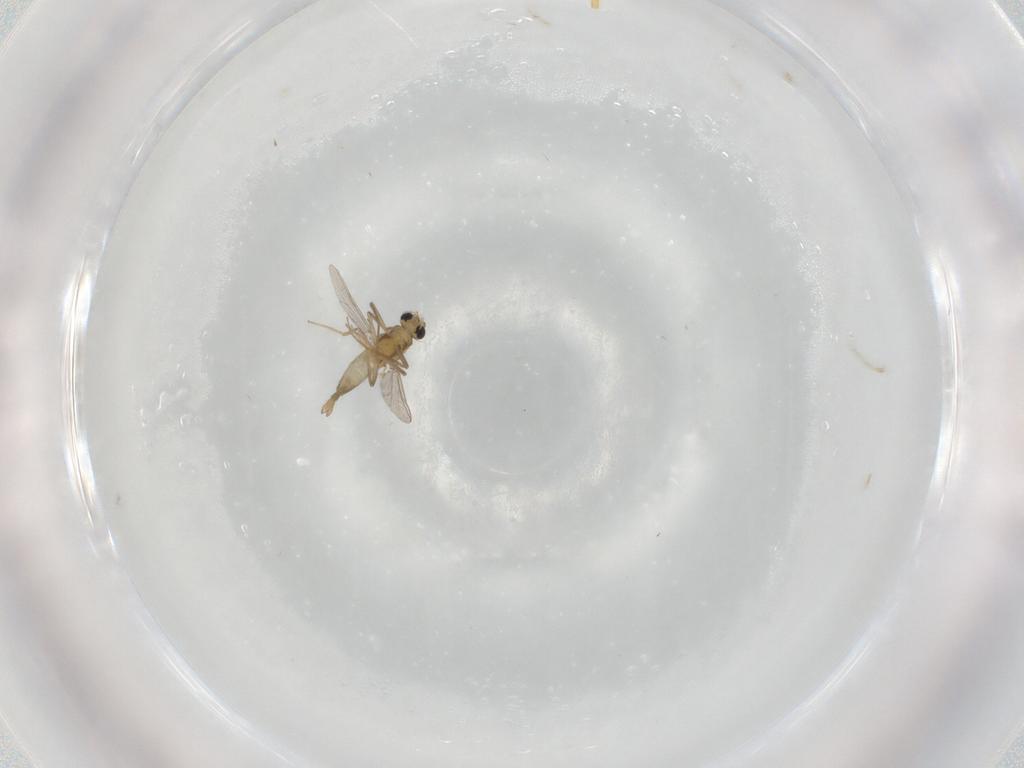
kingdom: Animalia
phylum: Arthropoda
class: Insecta
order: Diptera
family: Chironomidae
